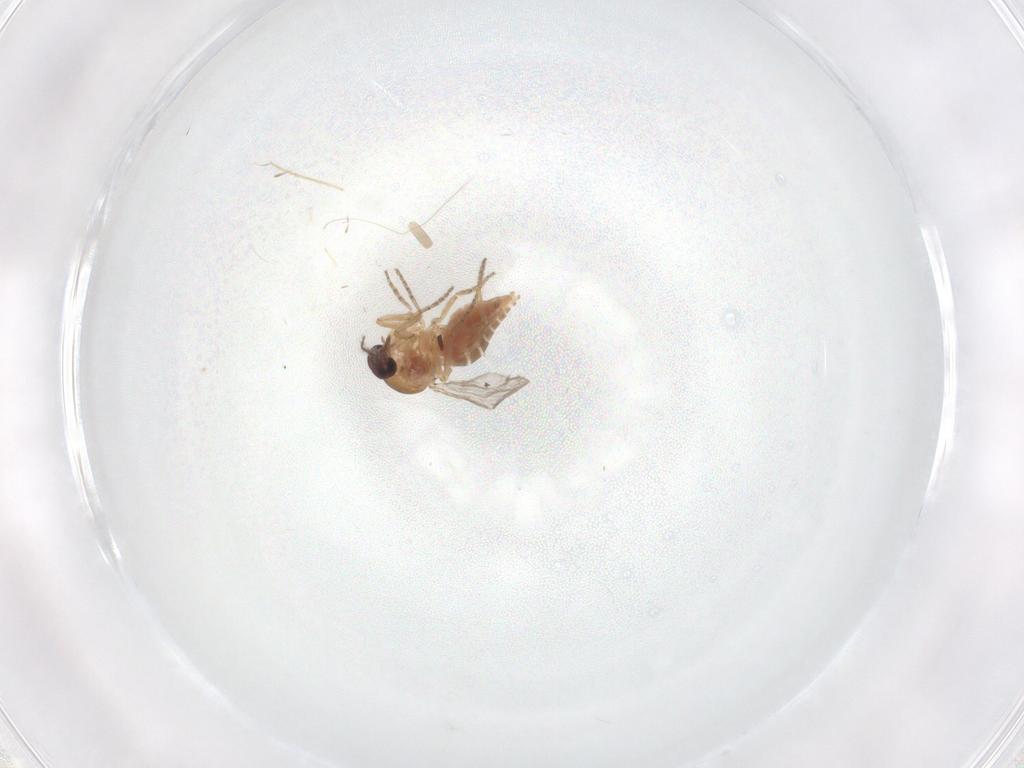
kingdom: Animalia
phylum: Arthropoda
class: Insecta
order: Diptera
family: Ceratopogonidae
